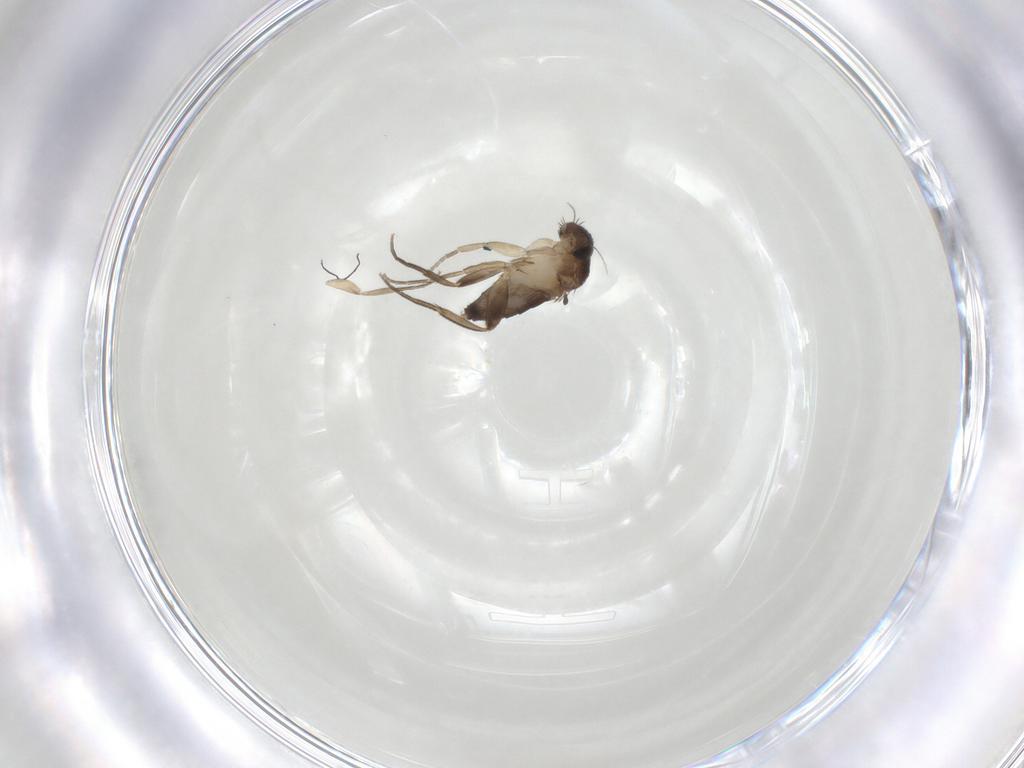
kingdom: Animalia
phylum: Arthropoda
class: Insecta
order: Diptera
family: Phoridae
